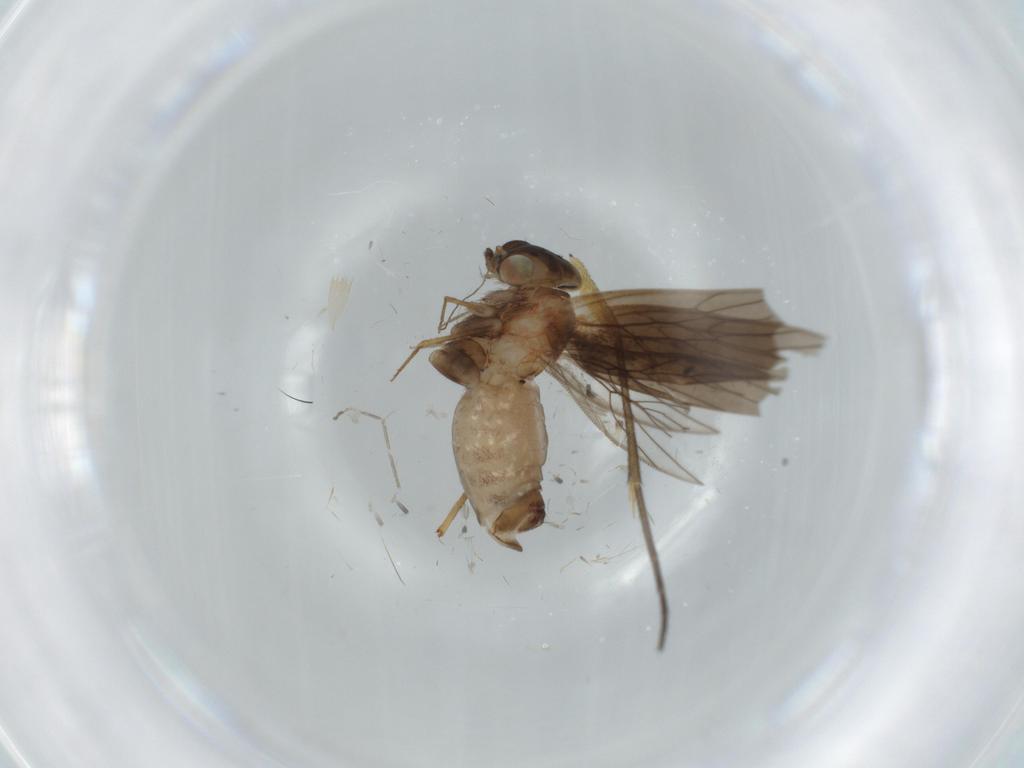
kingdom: Animalia
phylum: Arthropoda
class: Insecta
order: Psocodea
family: Lepidopsocidae
